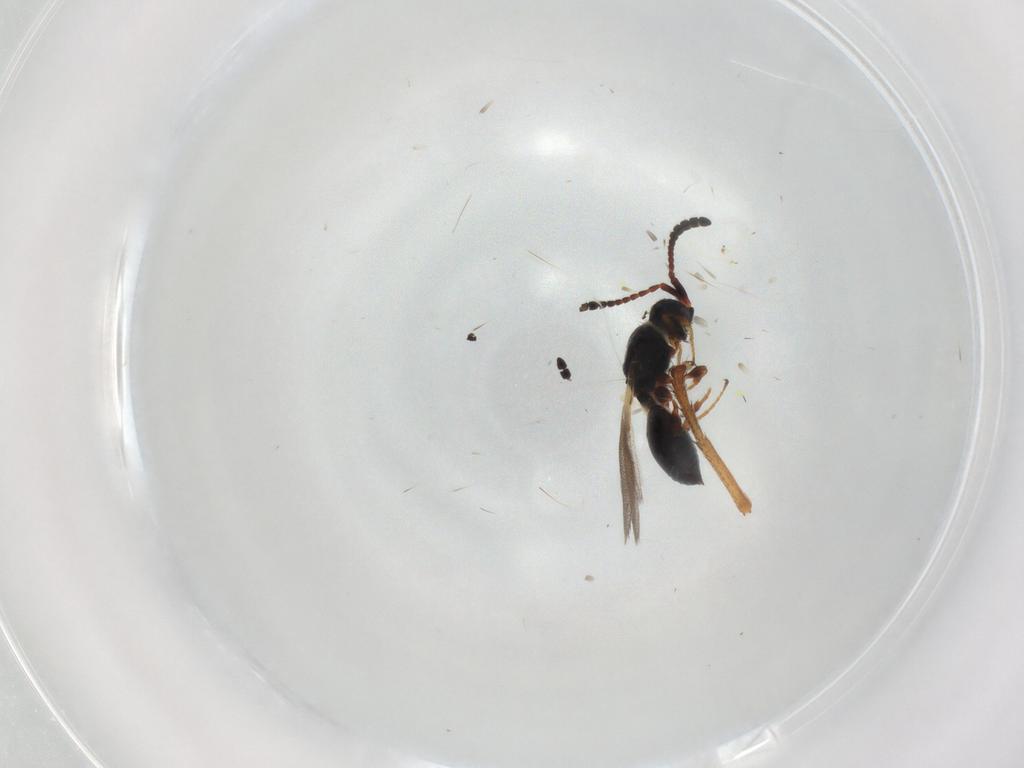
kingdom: Animalia
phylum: Arthropoda
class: Insecta
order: Hymenoptera
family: Diapriidae
